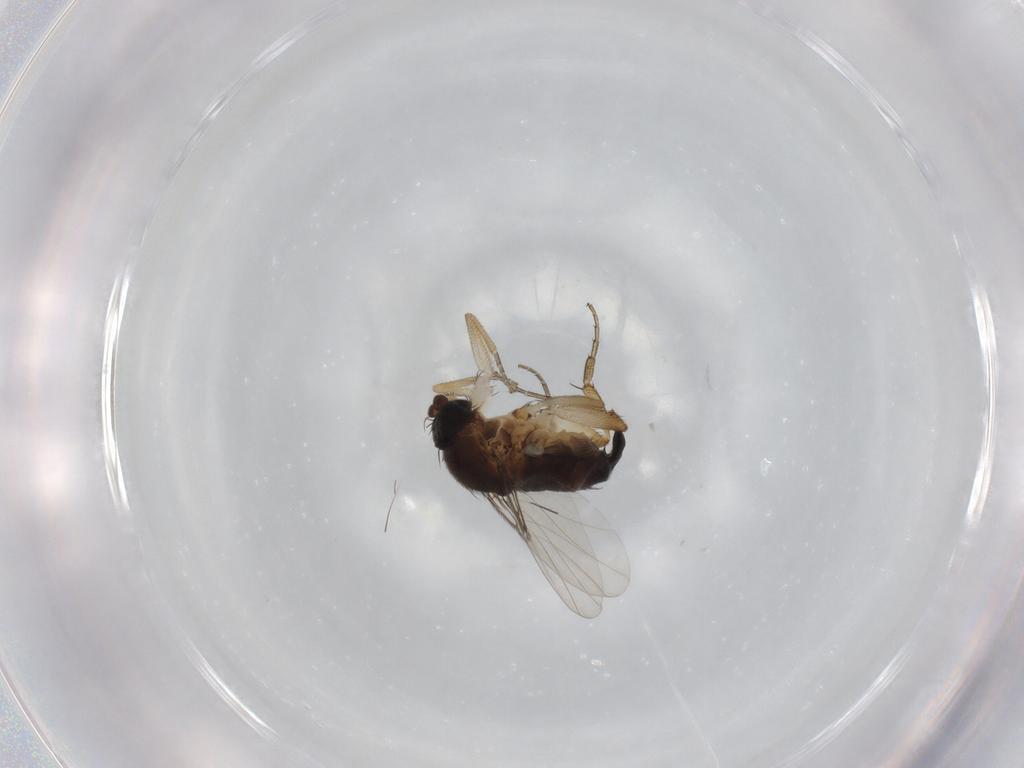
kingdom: Animalia
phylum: Arthropoda
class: Insecta
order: Diptera
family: Phoridae
